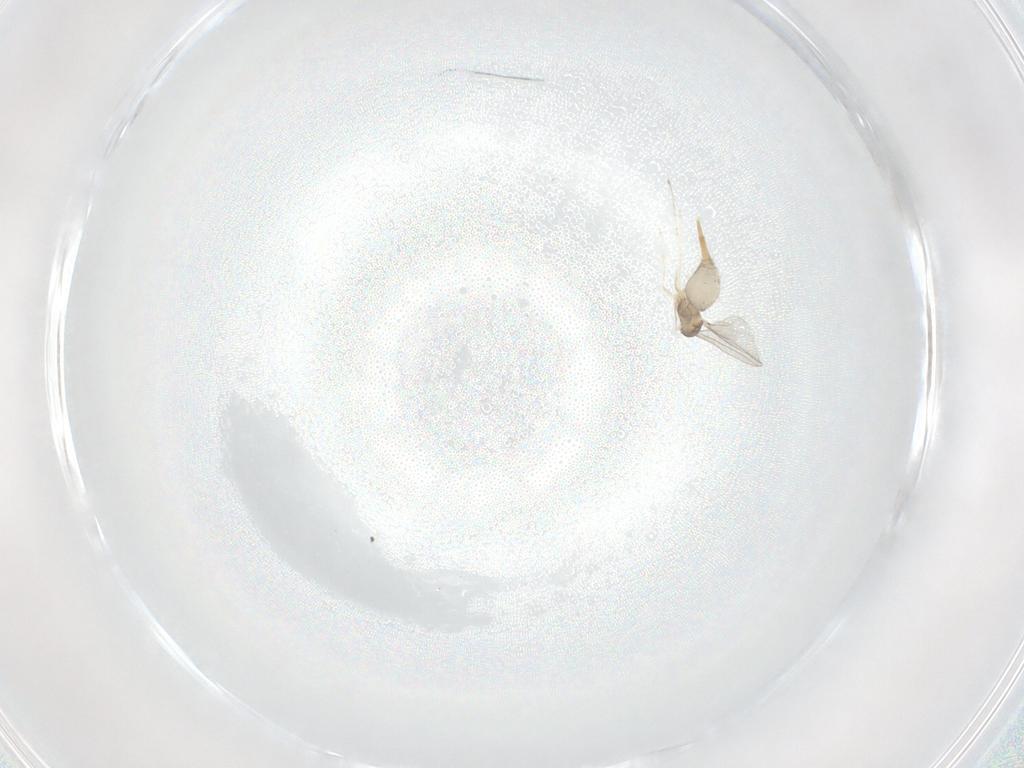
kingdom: Animalia
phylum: Arthropoda
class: Insecta
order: Diptera
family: Cecidomyiidae
